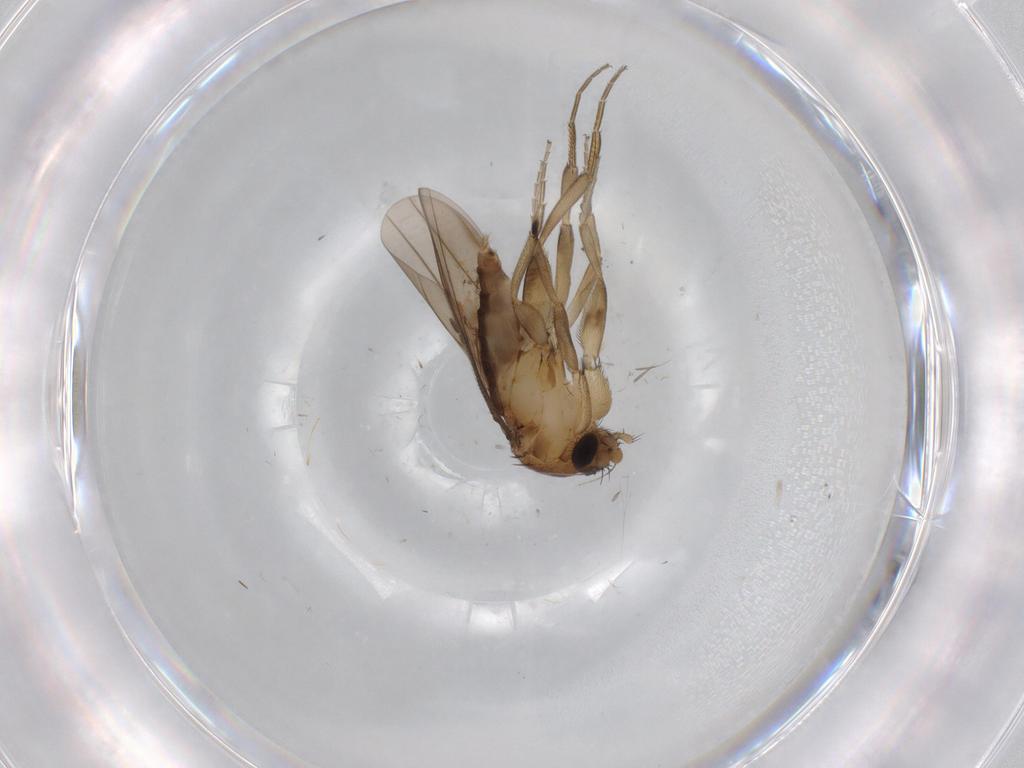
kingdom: Animalia
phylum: Arthropoda
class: Insecta
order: Diptera
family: Phoridae
